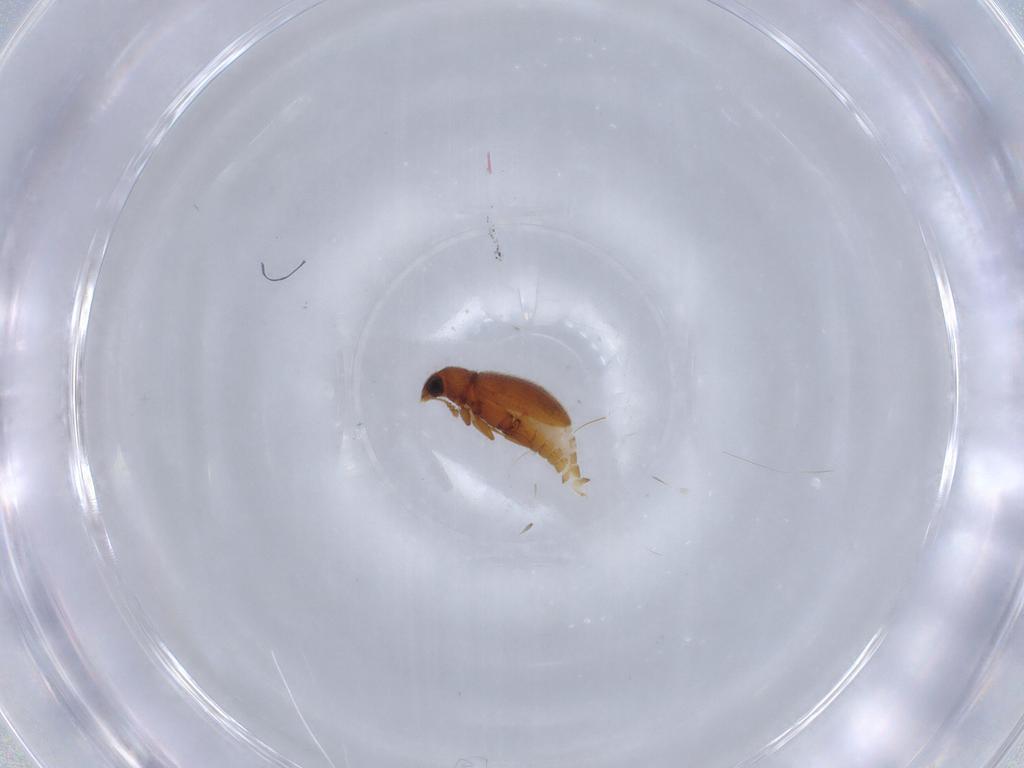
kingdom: Animalia
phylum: Arthropoda
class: Insecta
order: Coleoptera
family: Latridiidae
